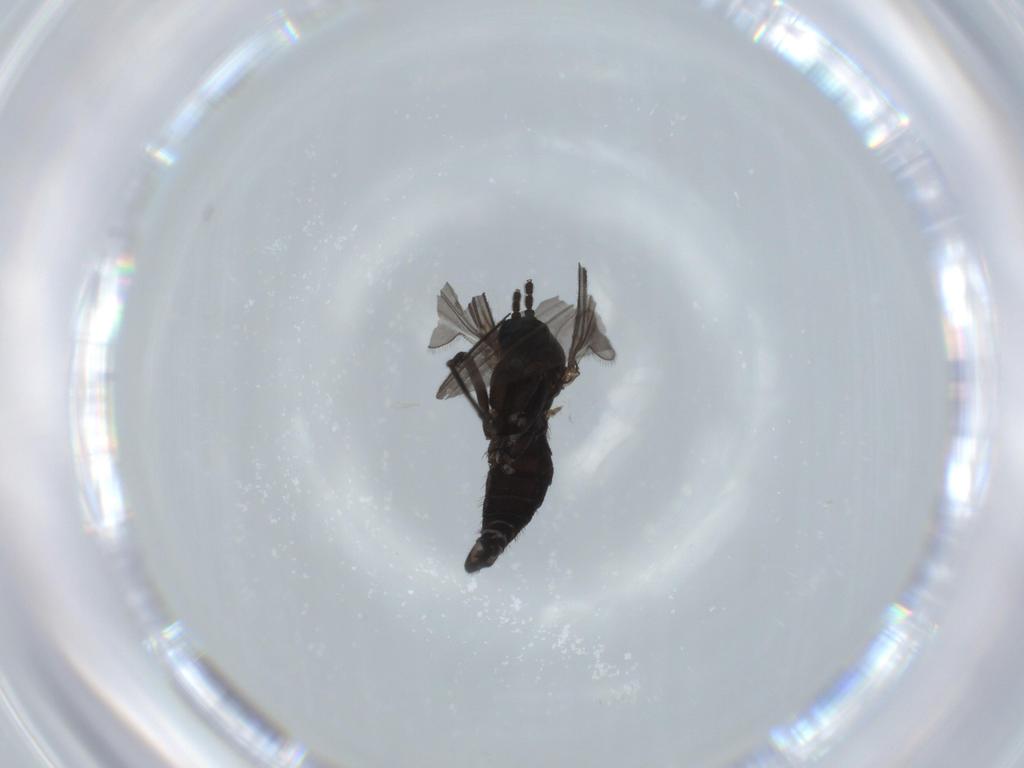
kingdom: Animalia
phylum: Arthropoda
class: Insecta
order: Diptera
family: Sciaridae
